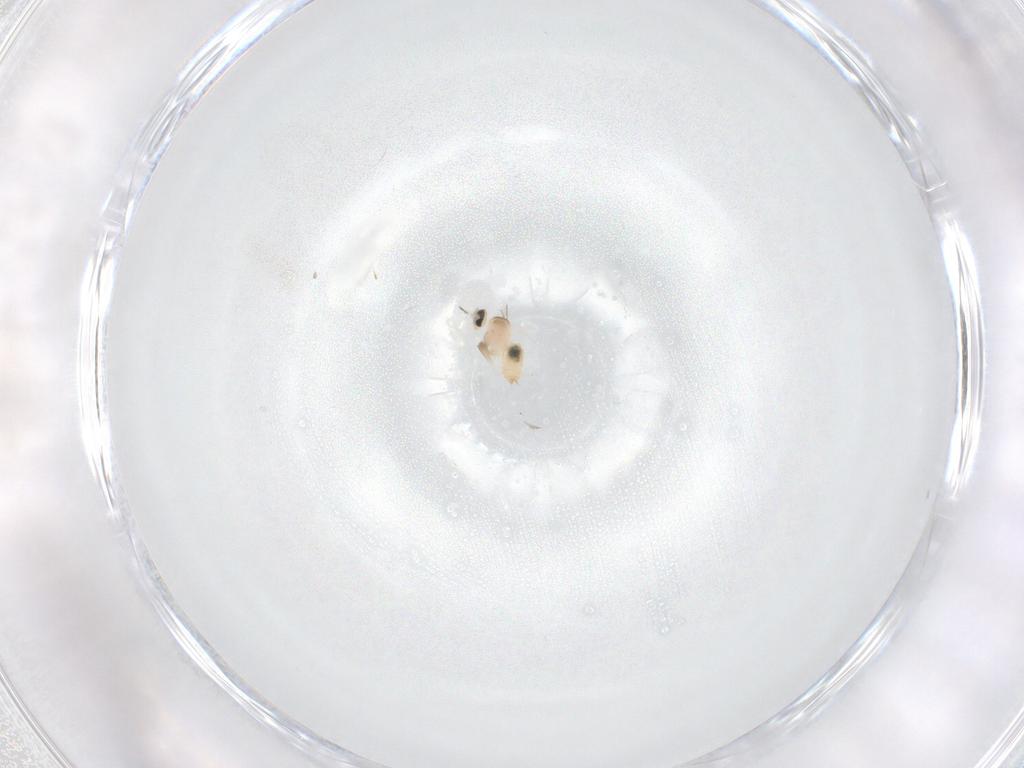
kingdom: Animalia
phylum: Arthropoda
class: Insecta
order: Diptera
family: Cecidomyiidae
